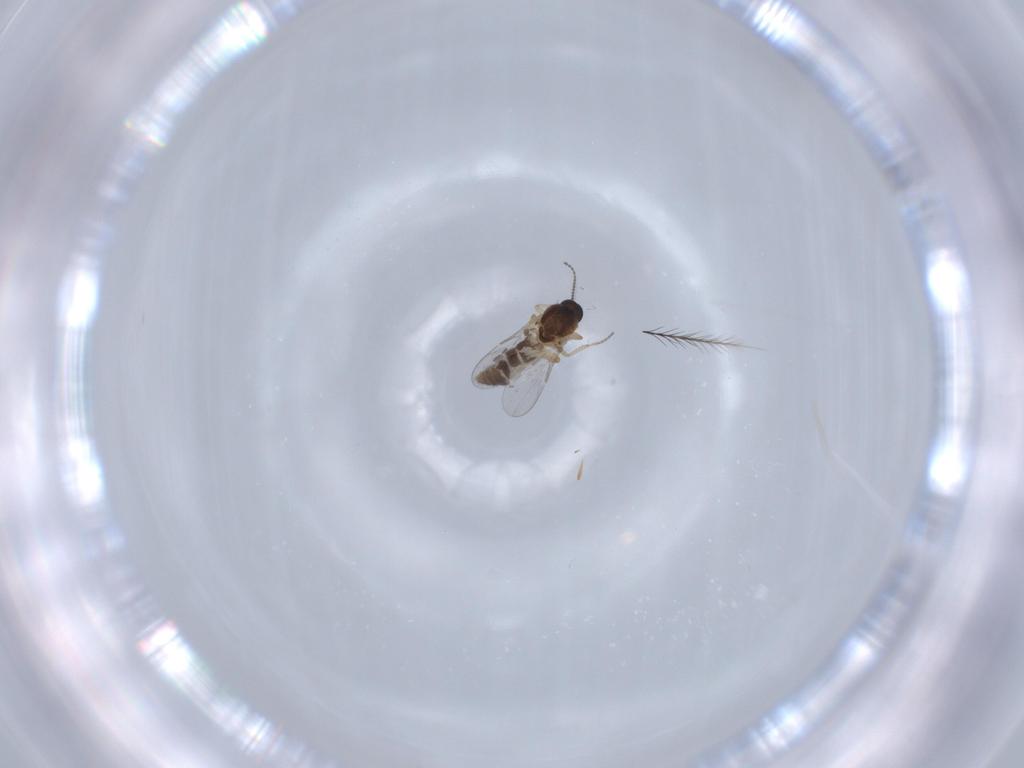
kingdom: Animalia
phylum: Arthropoda
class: Insecta
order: Diptera
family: Ceratopogonidae
